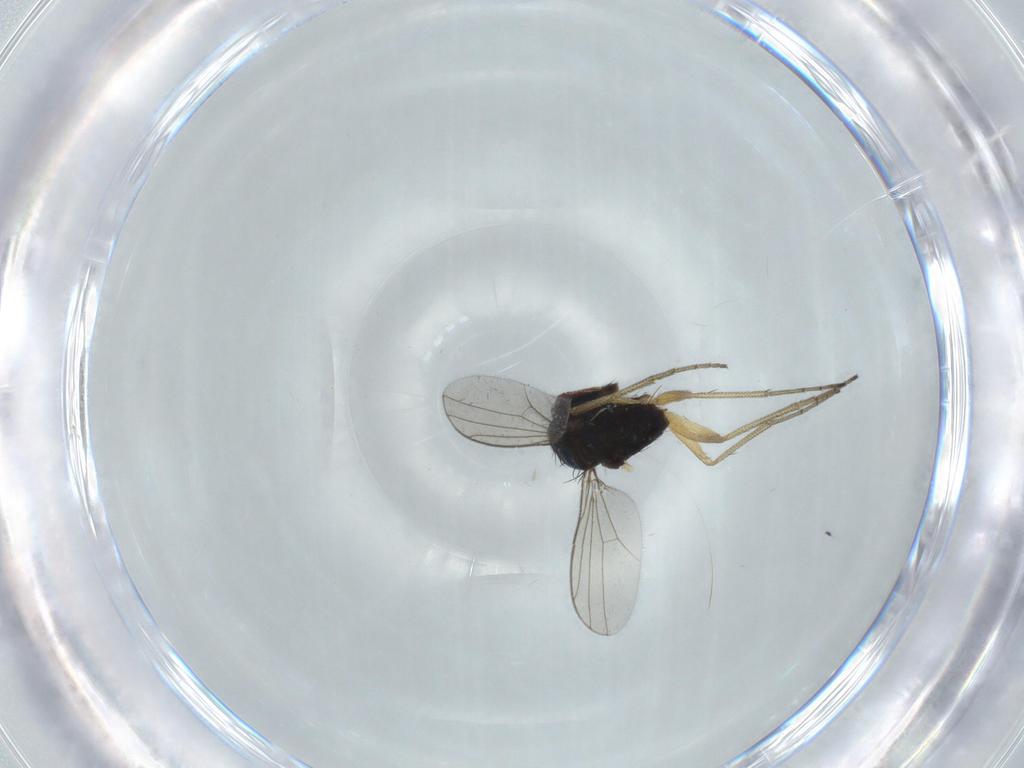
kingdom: Animalia
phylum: Arthropoda
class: Insecta
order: Diptera
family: Dolichopodidae
